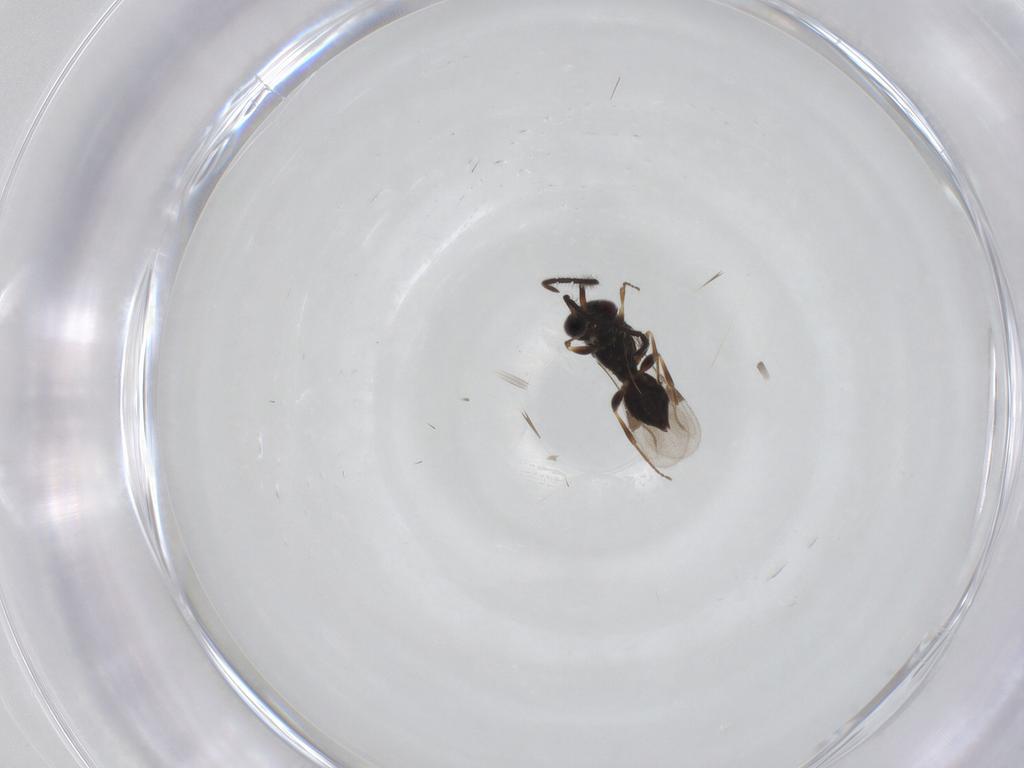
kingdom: Animalia
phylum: Arthropoda
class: Insecta
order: Hymenoptera
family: Megaspilidae
